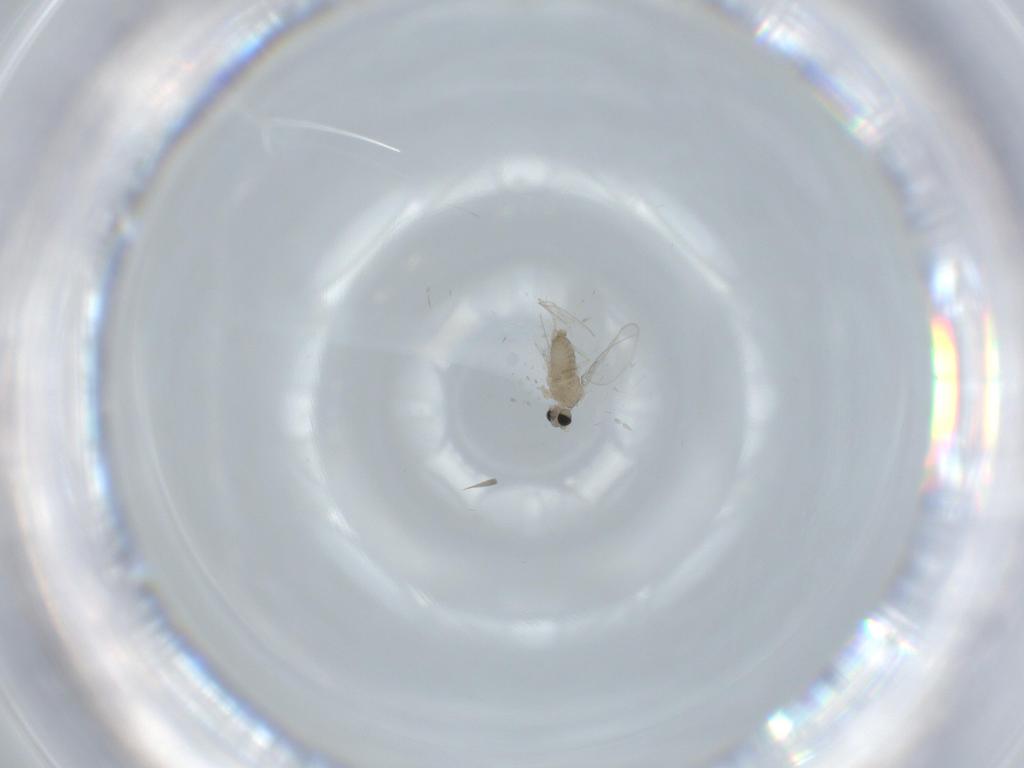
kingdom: Animalia
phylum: Arthropoda
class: Insecta
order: Diptera
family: Cecidomyiidae
